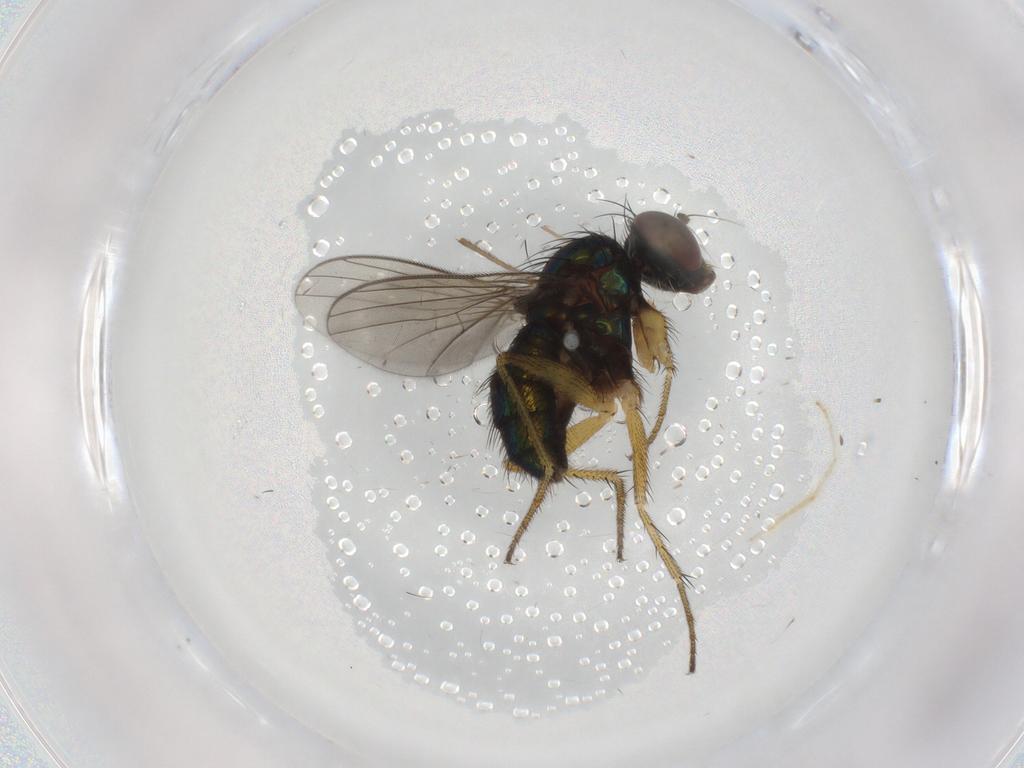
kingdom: Animalia
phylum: Arthropoda
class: Insecta
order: Diptera
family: Dolichopodidae
